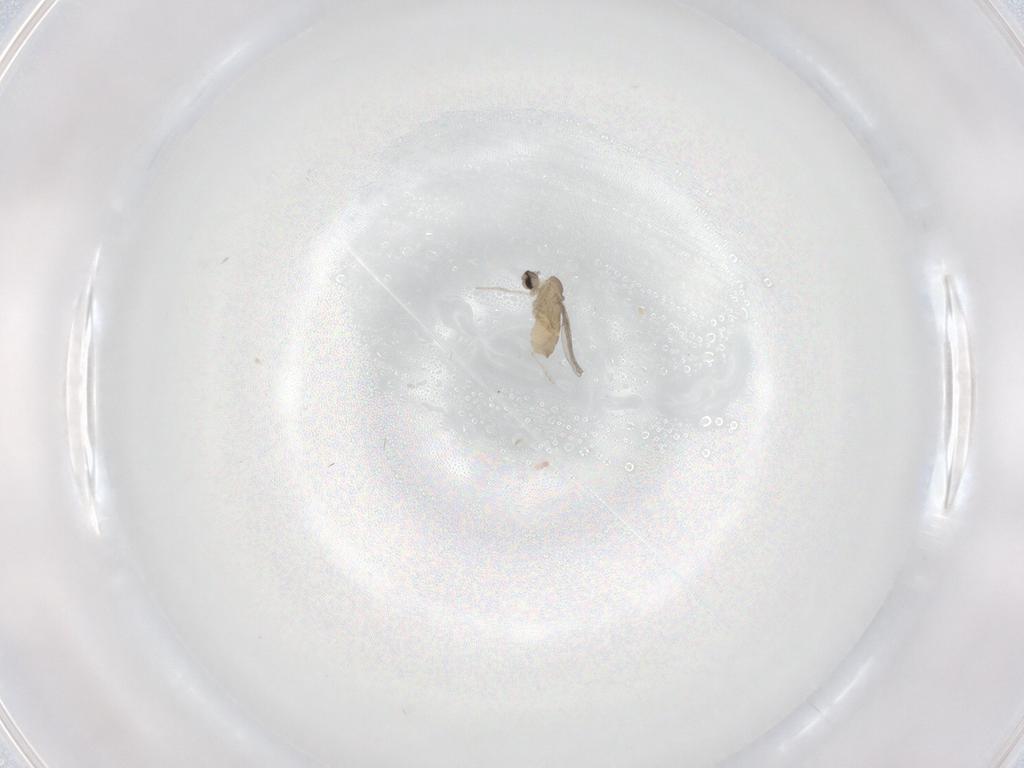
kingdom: Animalia
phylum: Arthropoda
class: Insecta
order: Diptera
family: Cecidomyiidae
